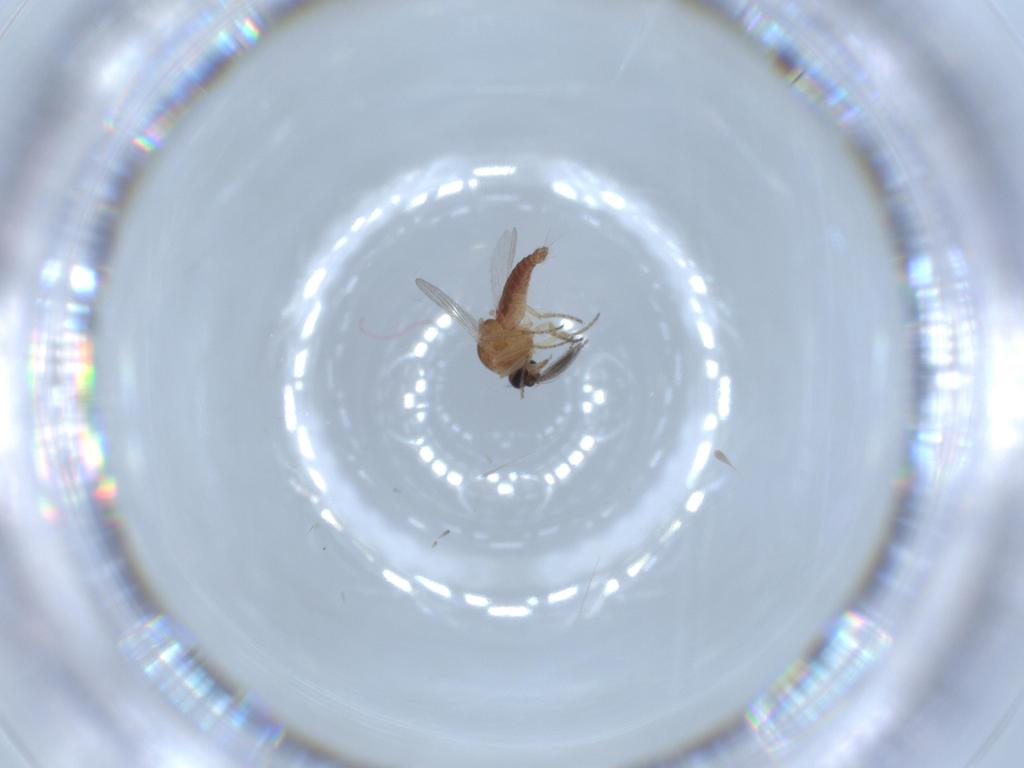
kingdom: Animalia
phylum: Arthropoda
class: Insecta
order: Diptera
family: Ceratopogonidae
